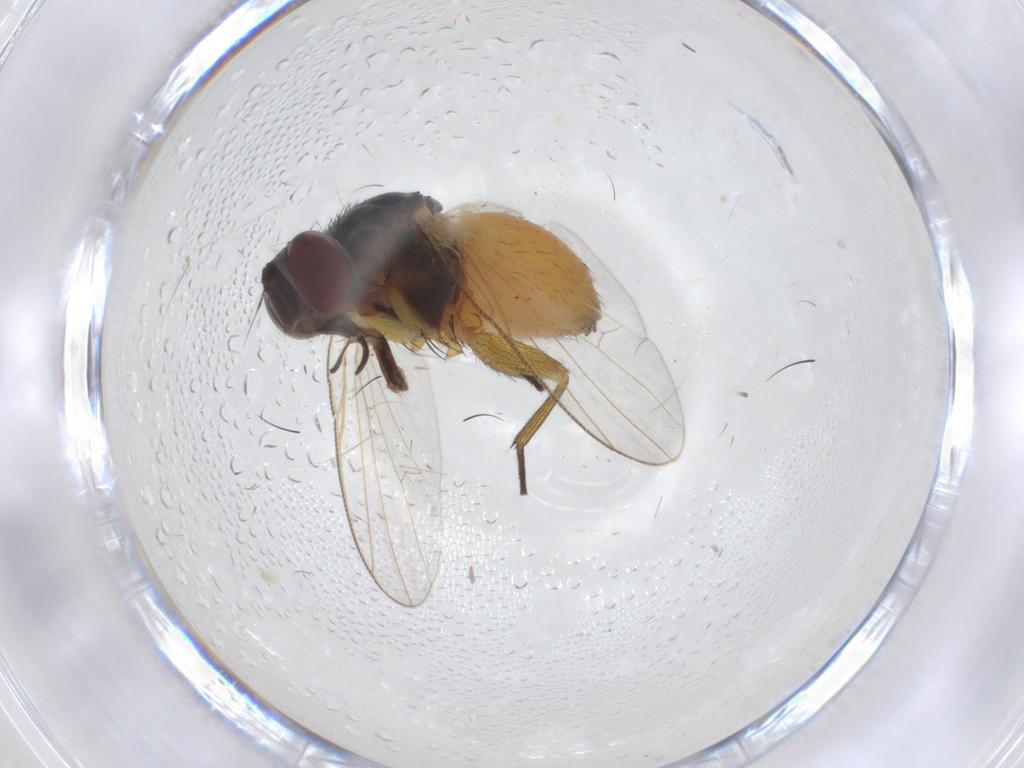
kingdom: Animalia
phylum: Arthropoda
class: Insecta
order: Diptera
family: Muscidae
